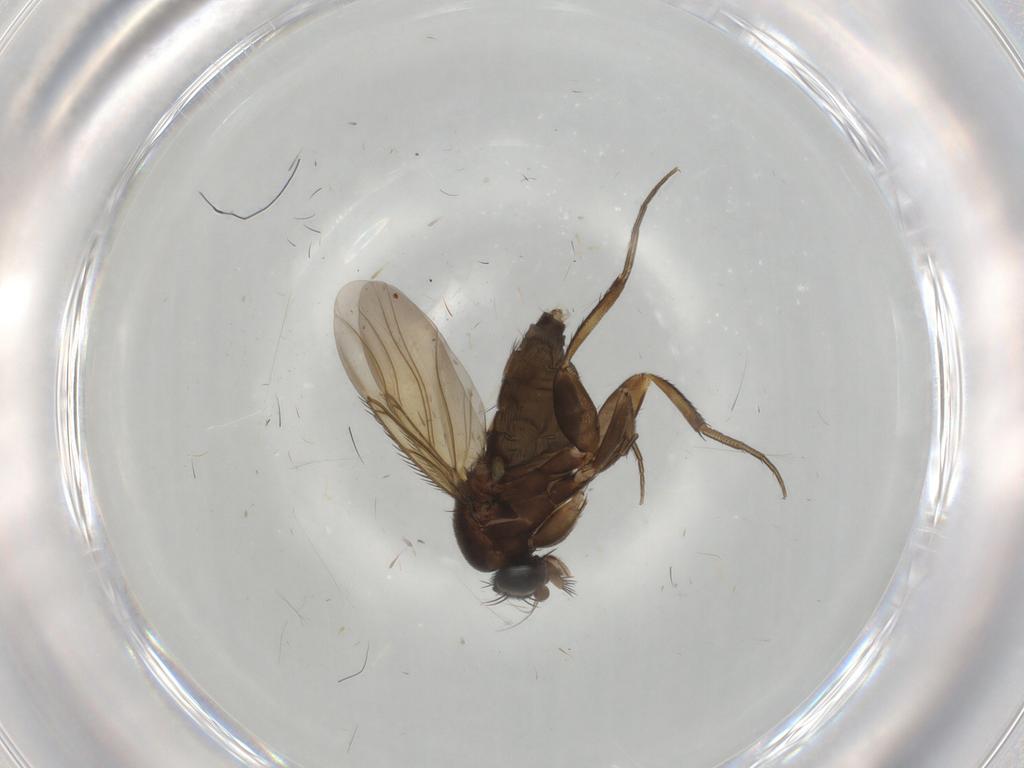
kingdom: Animalia
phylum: Arthropoda
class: Insecta
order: Diptera
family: Phoridae
